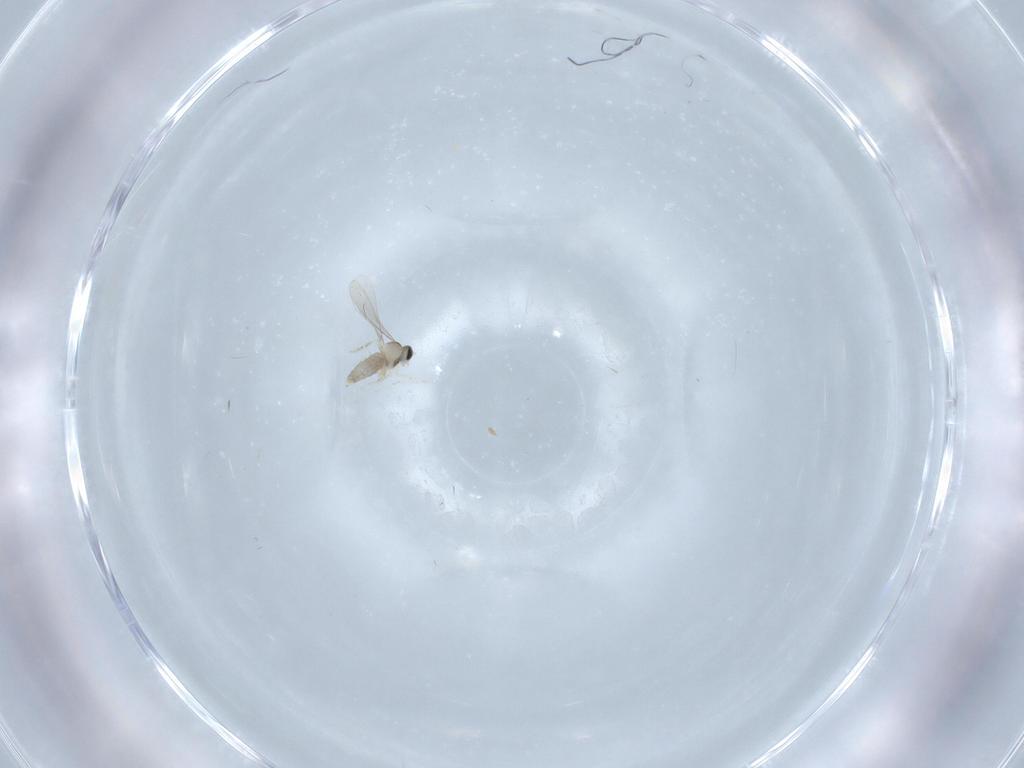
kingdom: Animalia
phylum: Arthropoda
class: Insecta
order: Diptera
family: Cecidomyiidae
